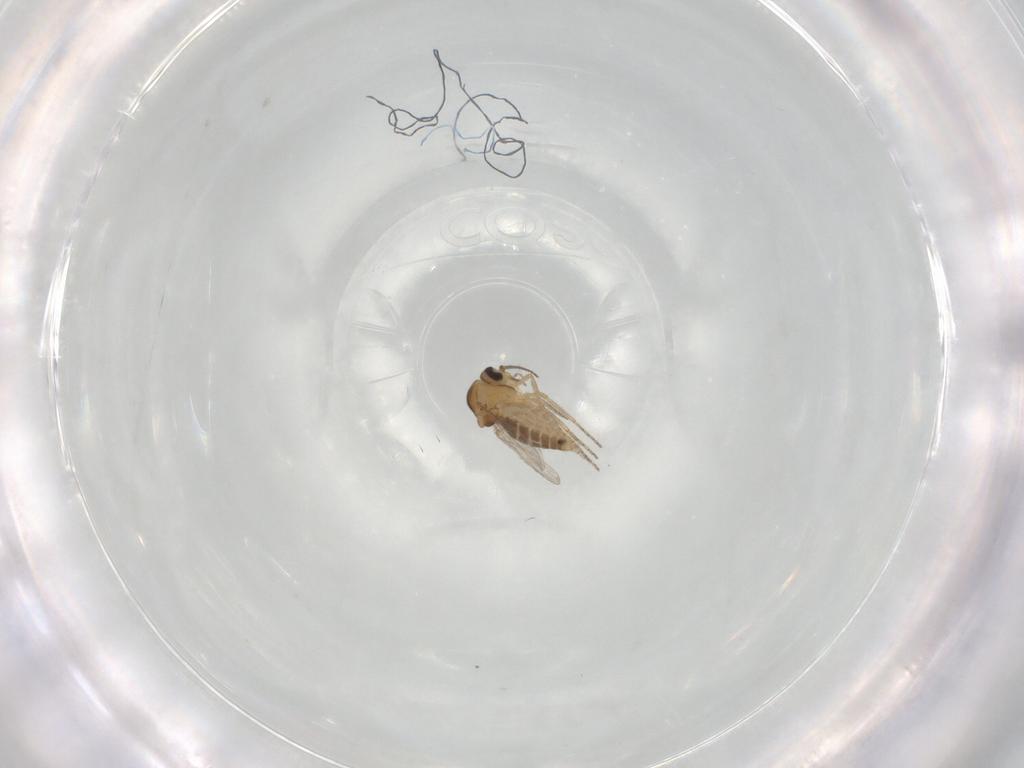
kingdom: Animalia
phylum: Arthropoda
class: Insecta
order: Diptera
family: Ceratopogonidae
